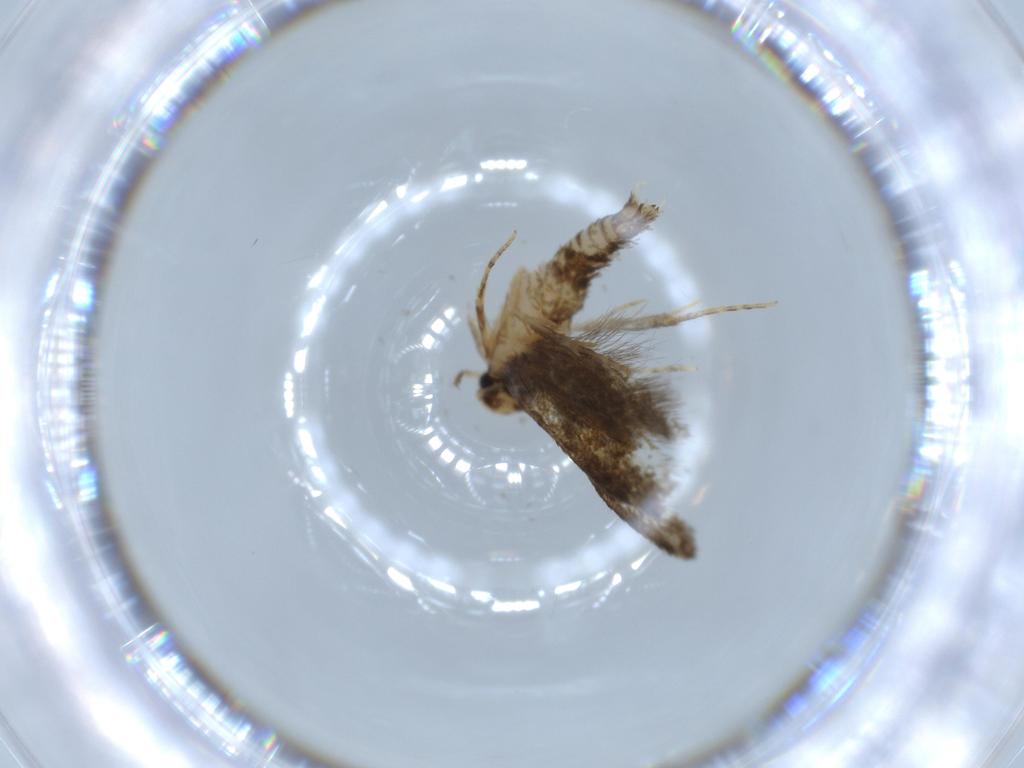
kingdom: Animalia
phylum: Arthropoda
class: Insecta
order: Lepidoptera
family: Tineidae
